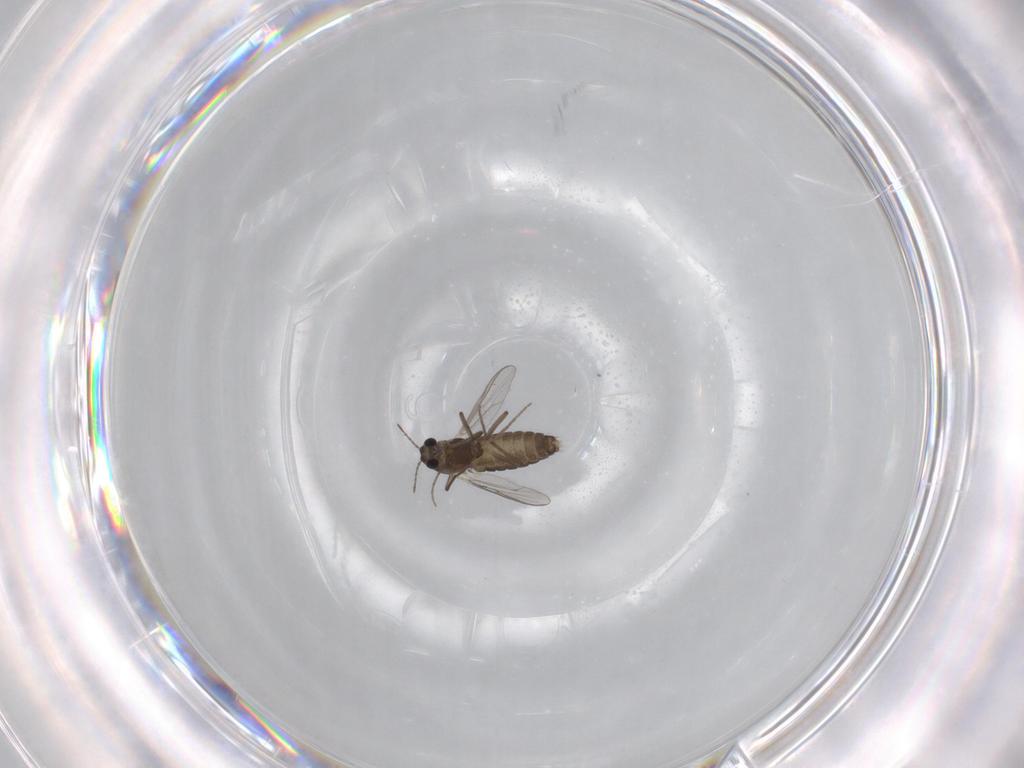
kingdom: Animalia
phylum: Arthropoda
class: Insecta
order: Diptera
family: Chironomidae
